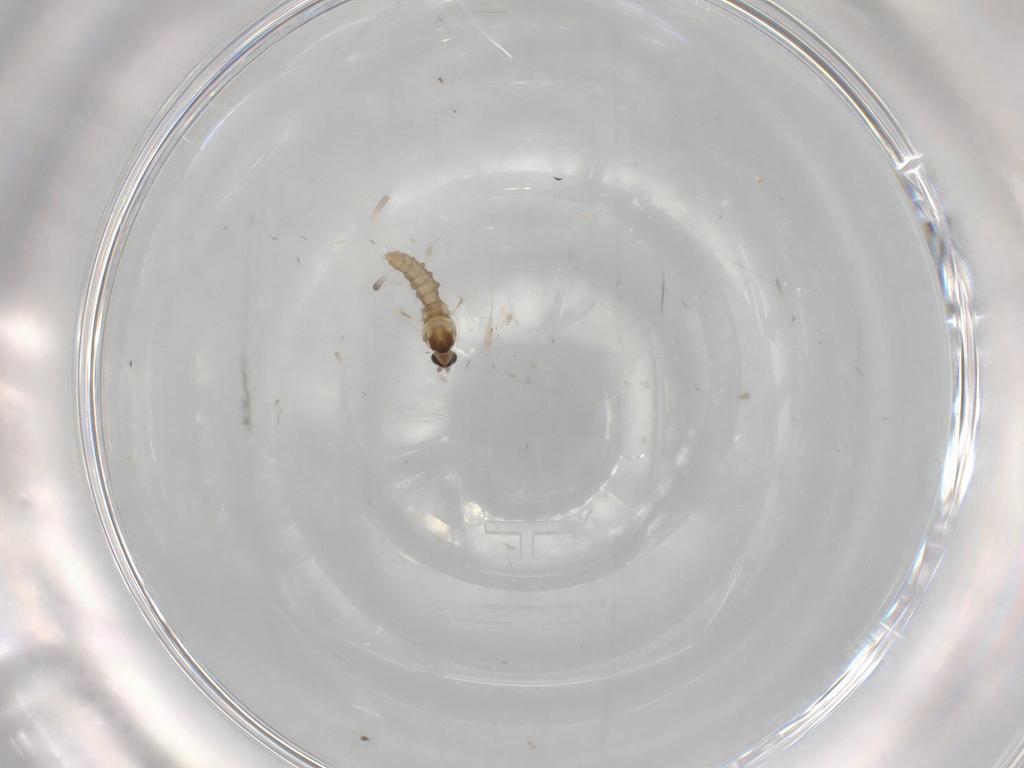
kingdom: Animalia
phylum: Arthropoda
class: Insecta
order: Diptera
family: Cecidomyiidae
